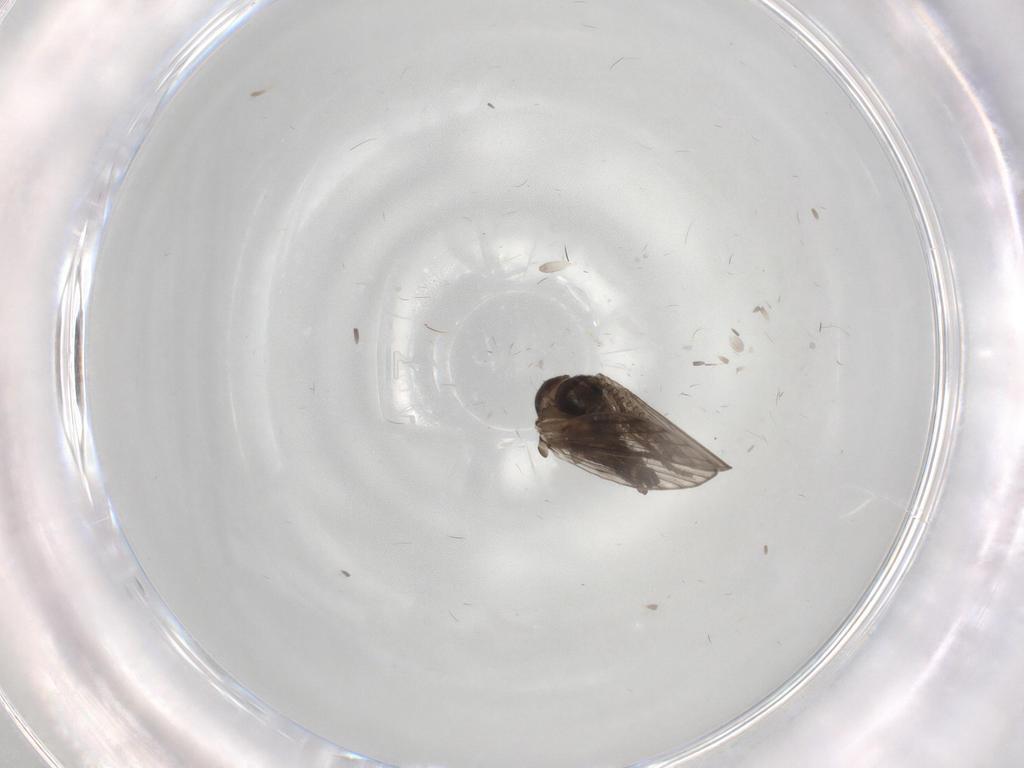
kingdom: Animalia
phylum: Arthropoda
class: Insecta
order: Diptera
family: Psychodidae
